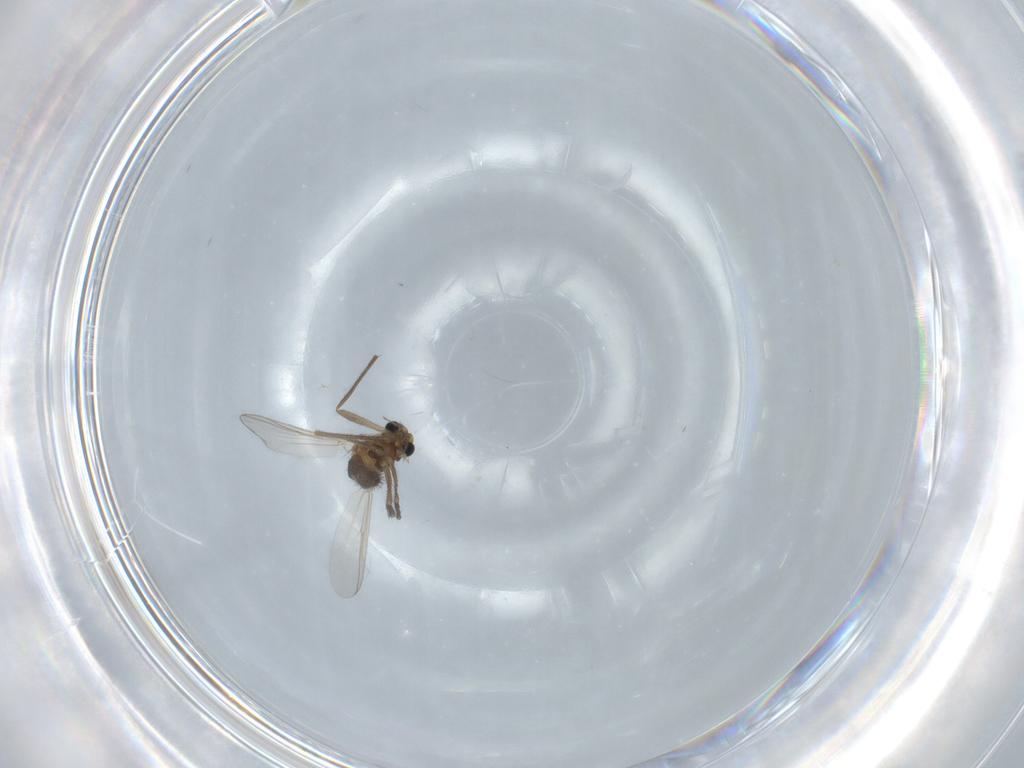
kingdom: Animalia
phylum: Arthropoda
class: Insecta
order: Diptera
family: Chironomidae
